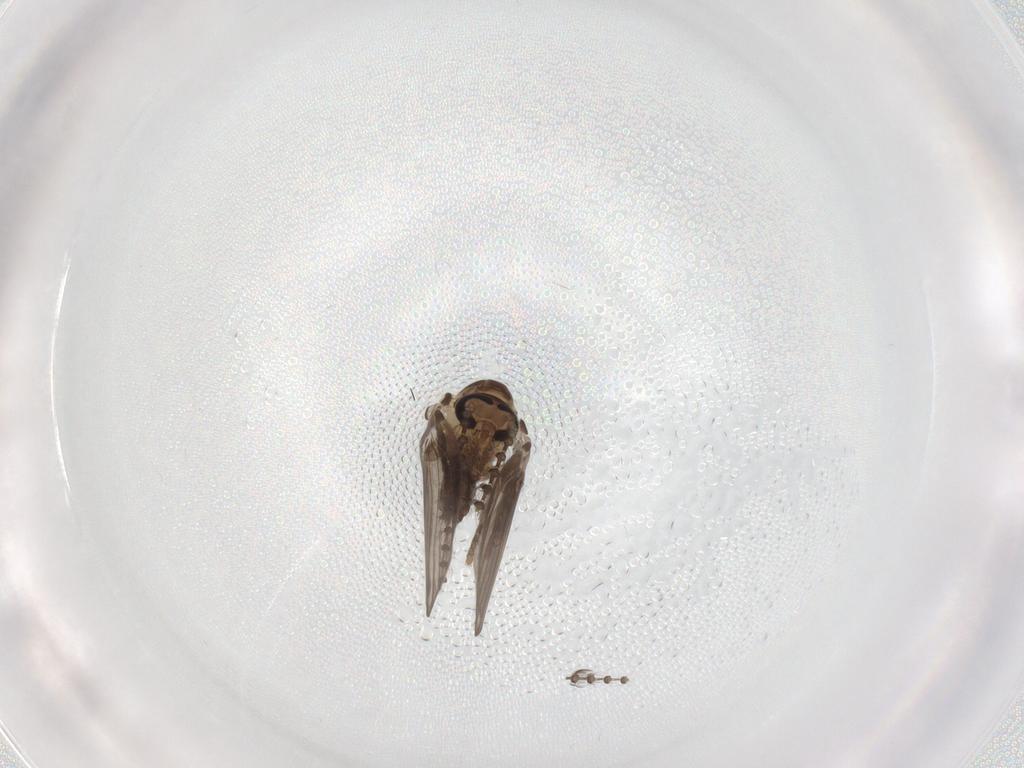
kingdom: Animalia
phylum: Arthropoda
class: Insecta
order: Diptera
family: Psychodidae
